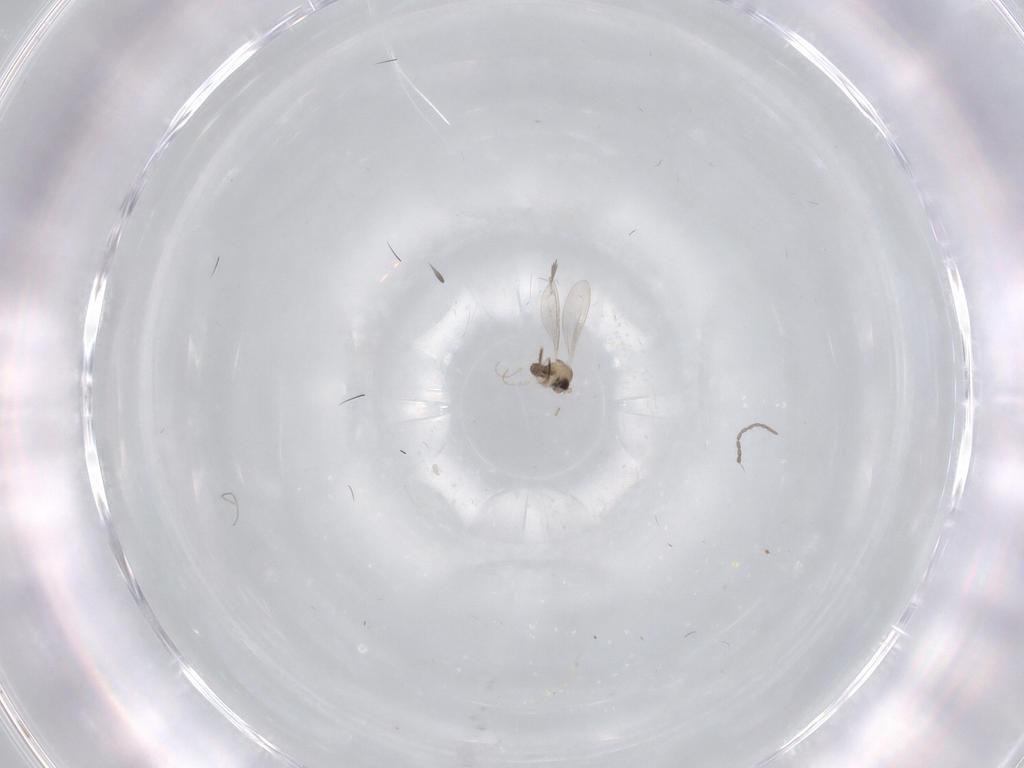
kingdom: Animalia
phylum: Arthropoda
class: Insecta
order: Diptera
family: Cecidomyiidae
